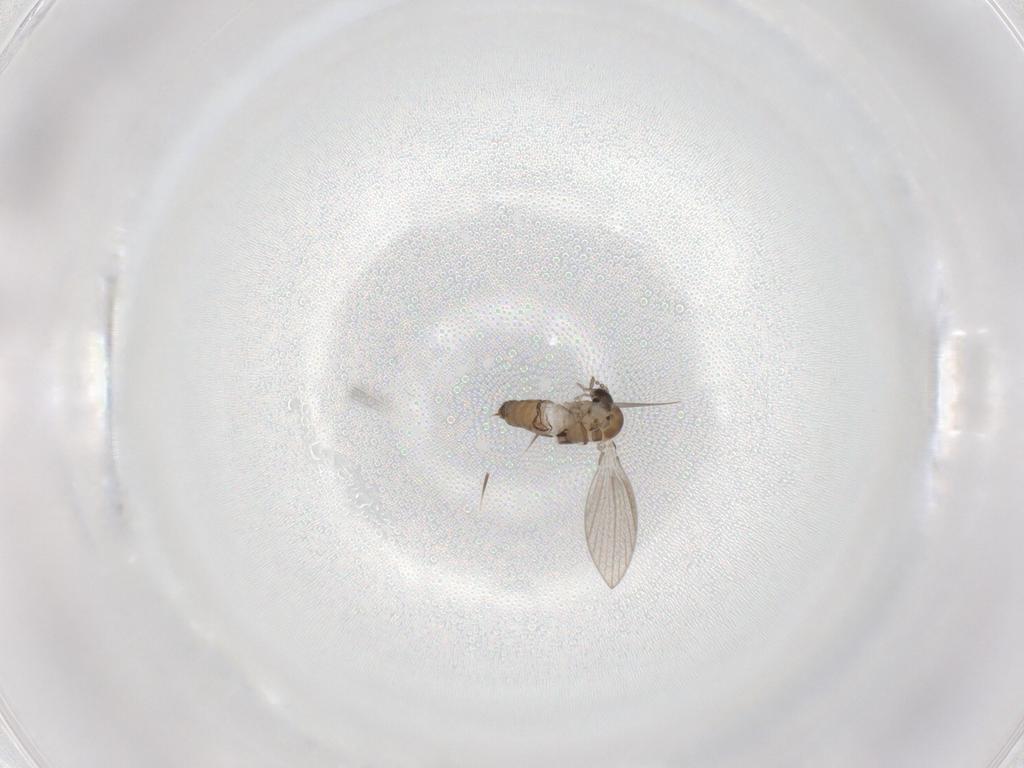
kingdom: Animalia
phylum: Arthropoda
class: Insecta
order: Diptera
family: Psychodidae
